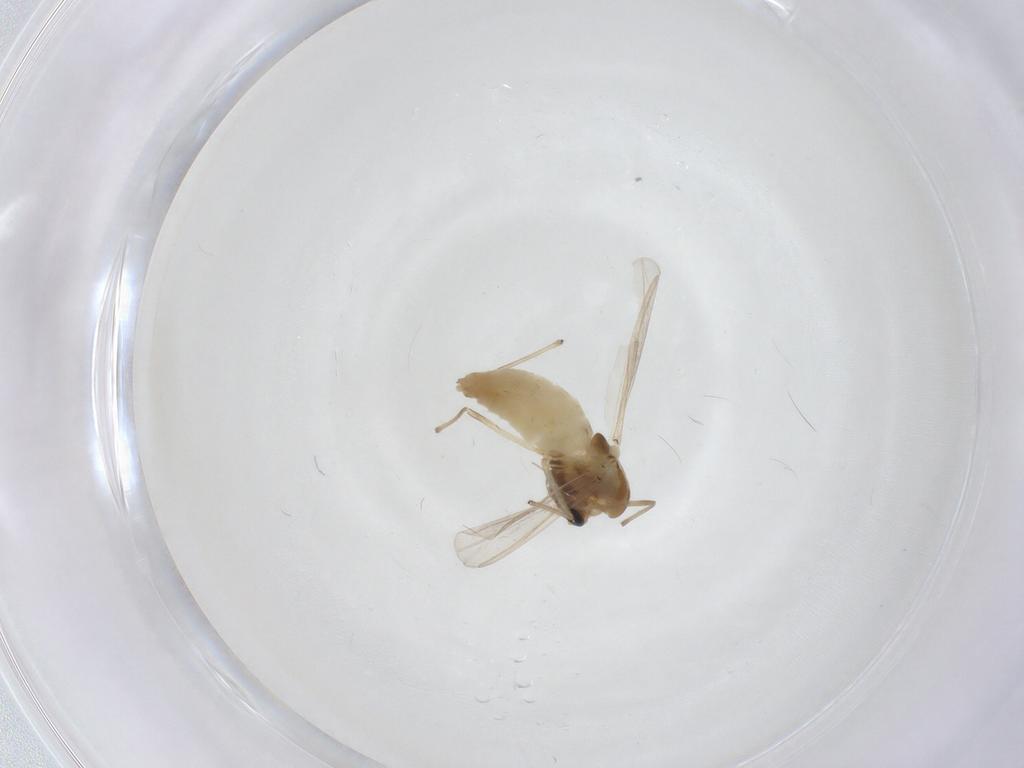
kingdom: Animalia
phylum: Arthropoda
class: Insecta
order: Diptera
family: Chironomidae
